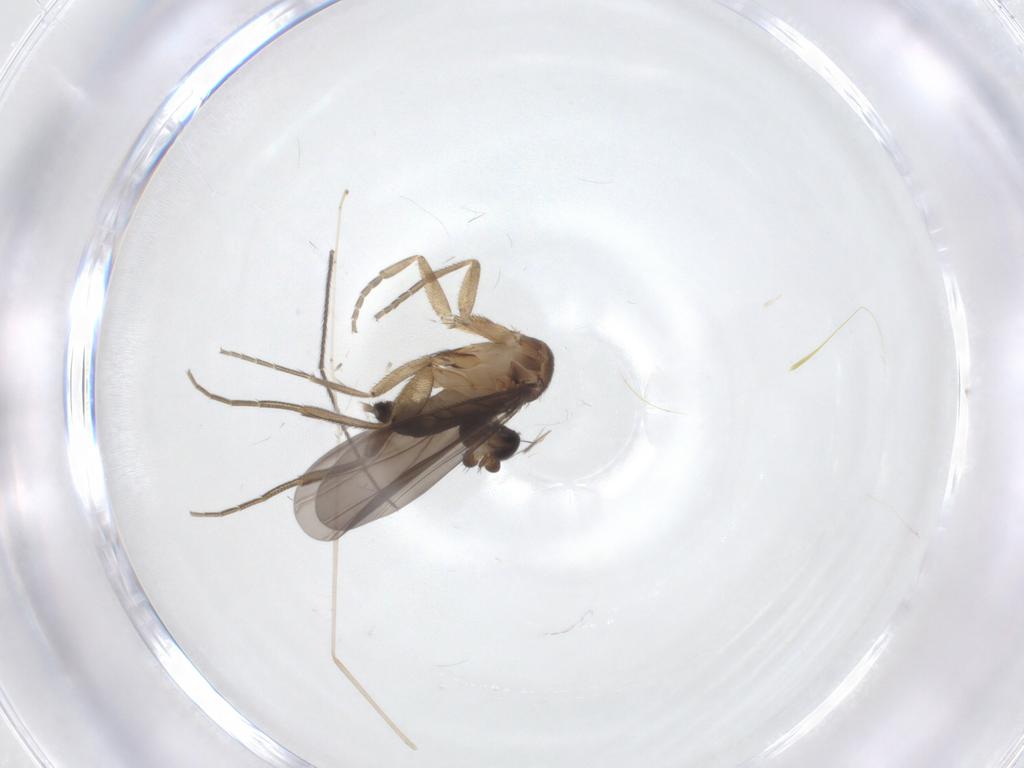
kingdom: Animalia
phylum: Arthropoda
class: Insecta
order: Diptera
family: Cecidomyiidae
